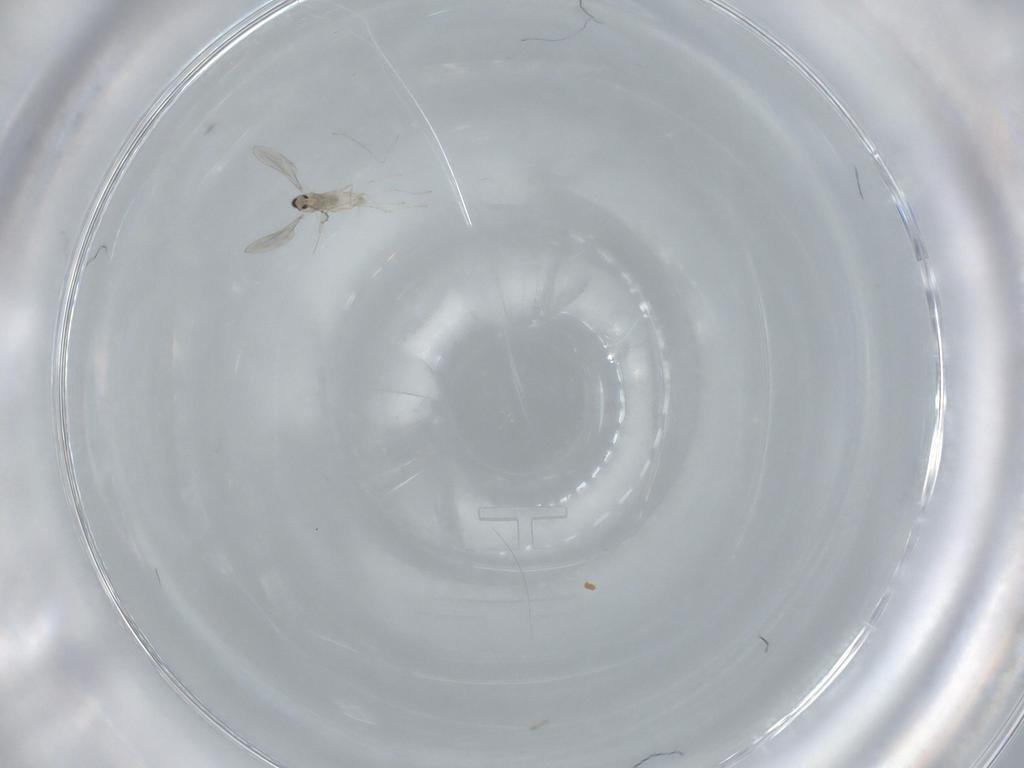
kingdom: Animalia
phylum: Arthropoda
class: Insecta
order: Diptera
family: Cecidomyiidae
